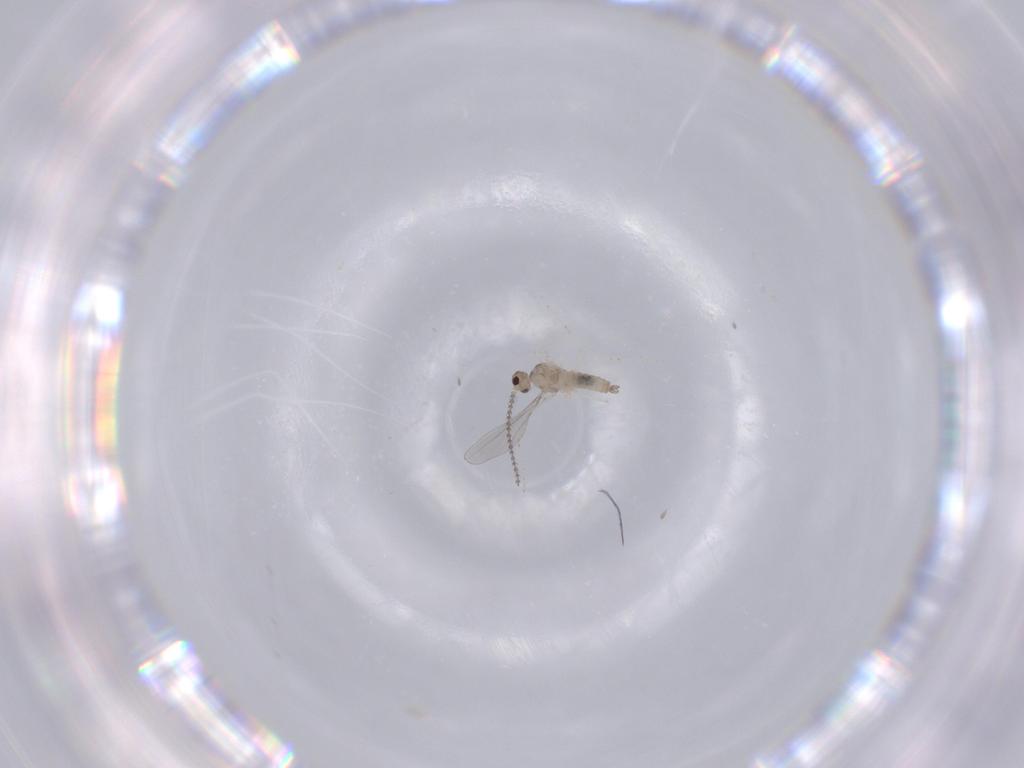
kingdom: Animalia
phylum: Arthropoda
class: Insecta
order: Diptera
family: Cecidomyiidae
